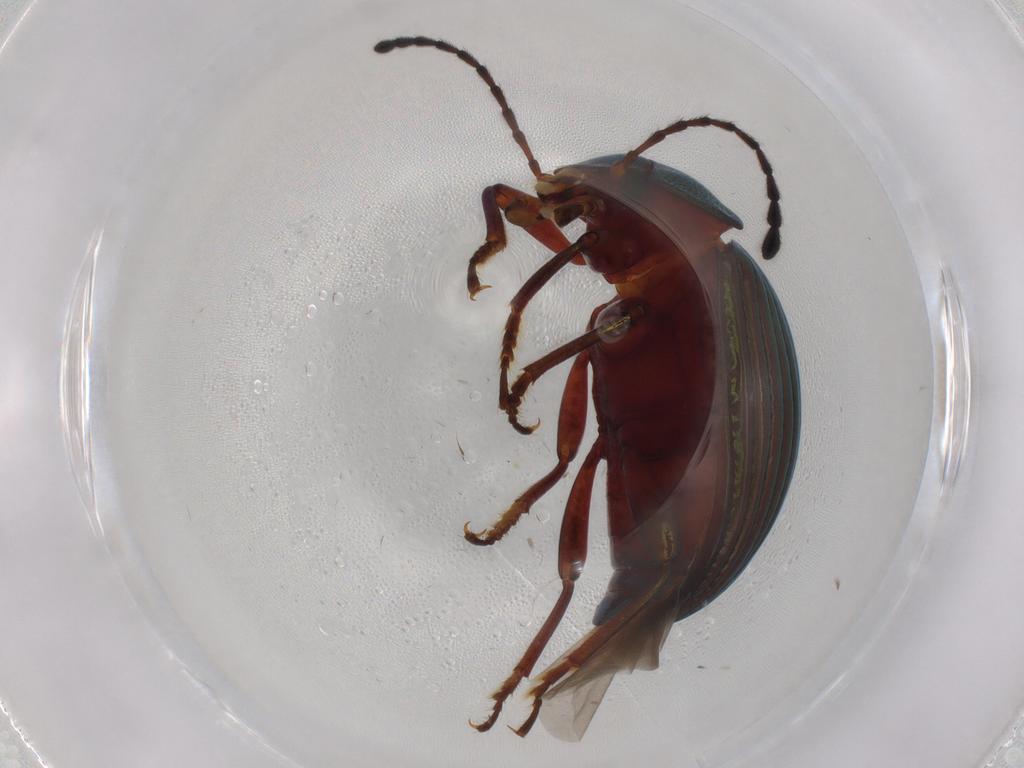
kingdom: Animalia
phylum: Arthropoda
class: Insecta
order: Coleoptera
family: Tenebrionidae
